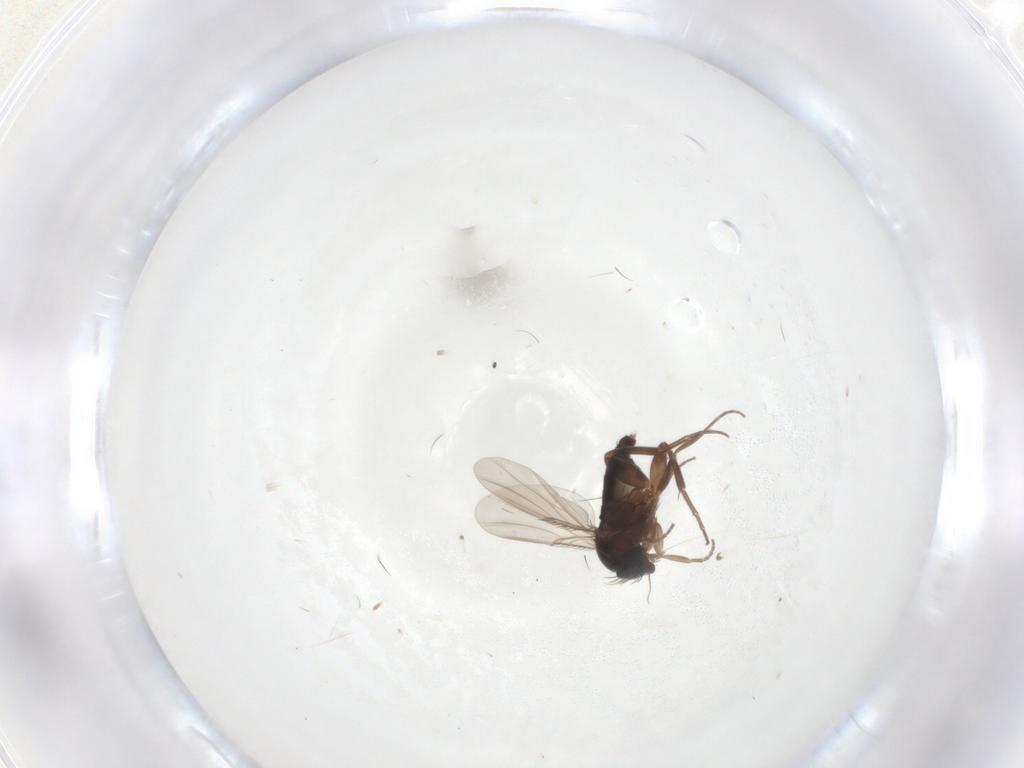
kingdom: Animalia
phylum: Arthropoda
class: Insecta
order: Diptera
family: Phoridae
